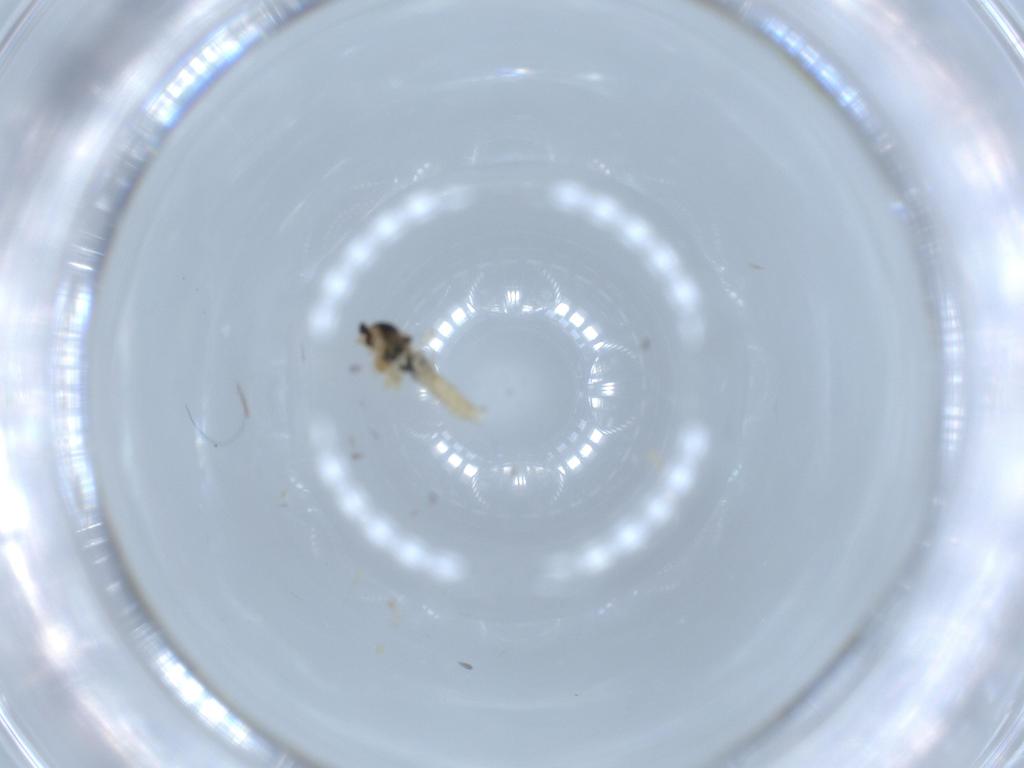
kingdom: Animalia
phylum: Arthropoda
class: Insecta
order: Diptera
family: Cecidomyiidae
